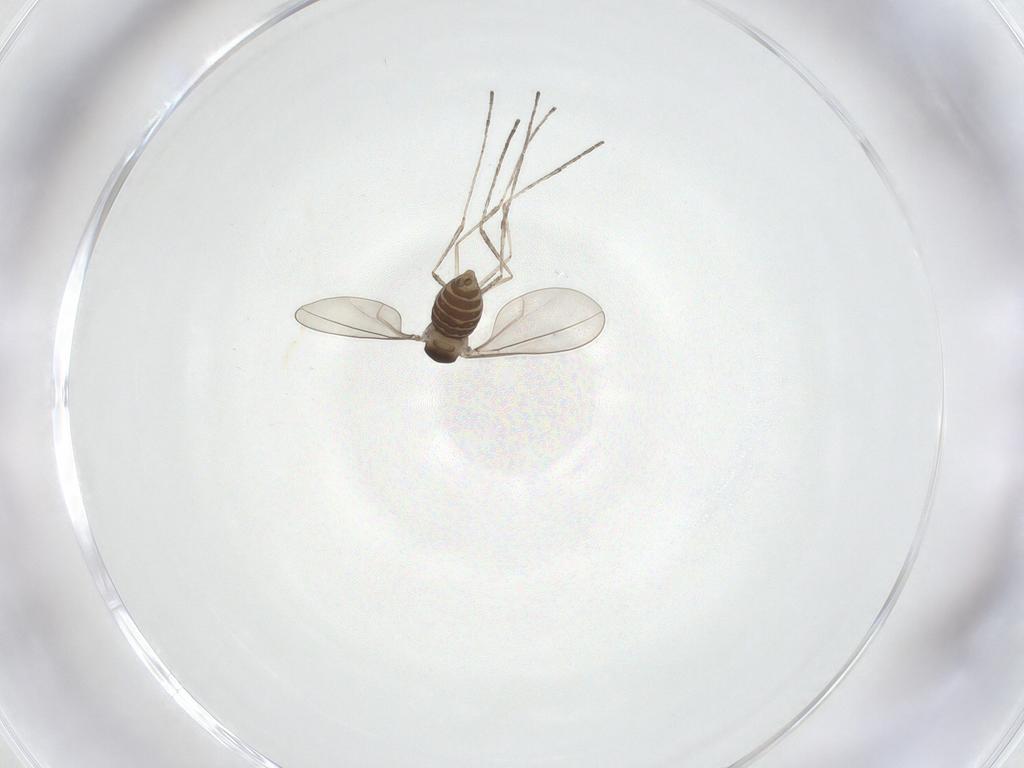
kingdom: Animalia
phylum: Arthropoda
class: Insecta
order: Diptera
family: Cecidomyiidae
